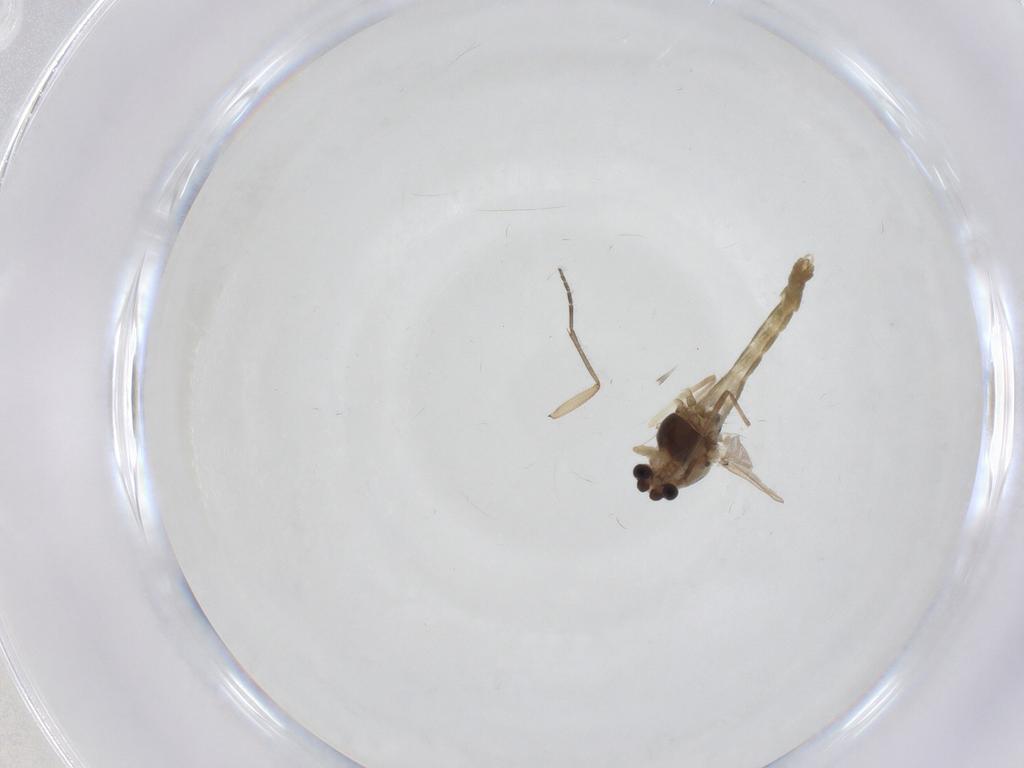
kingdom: Animalia
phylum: Arthropoda
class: Insecta
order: Diptera
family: Chironomidae
